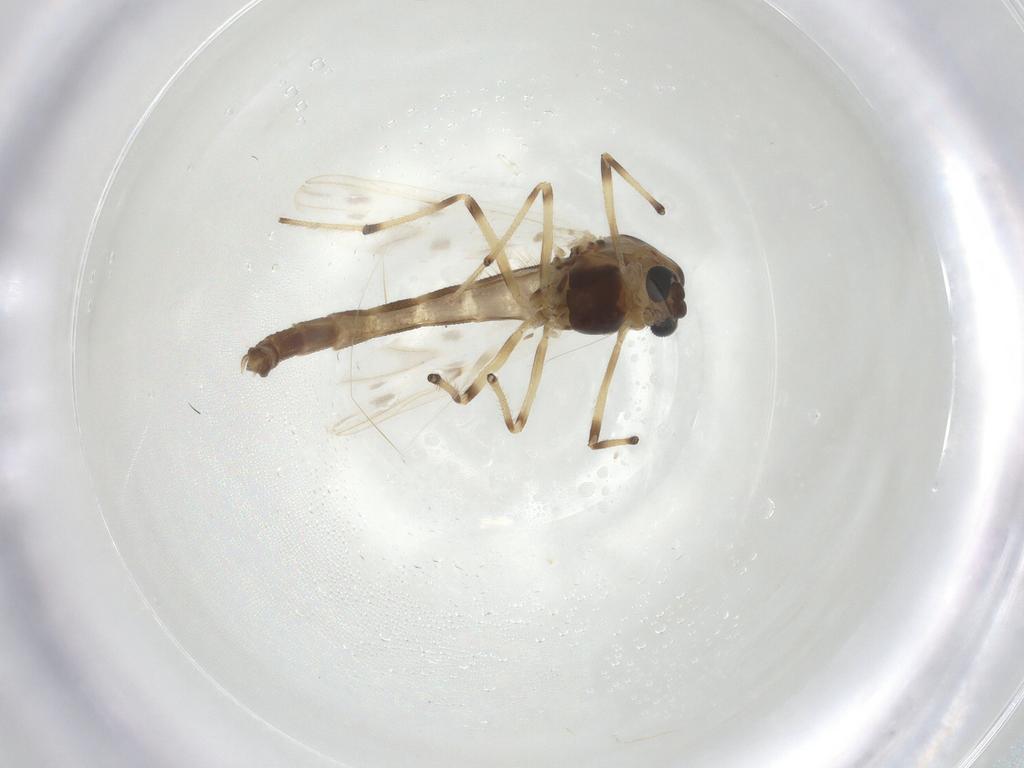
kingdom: Animalia
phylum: Arthropoda
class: Insecta
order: Diptera
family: Chironomidae
